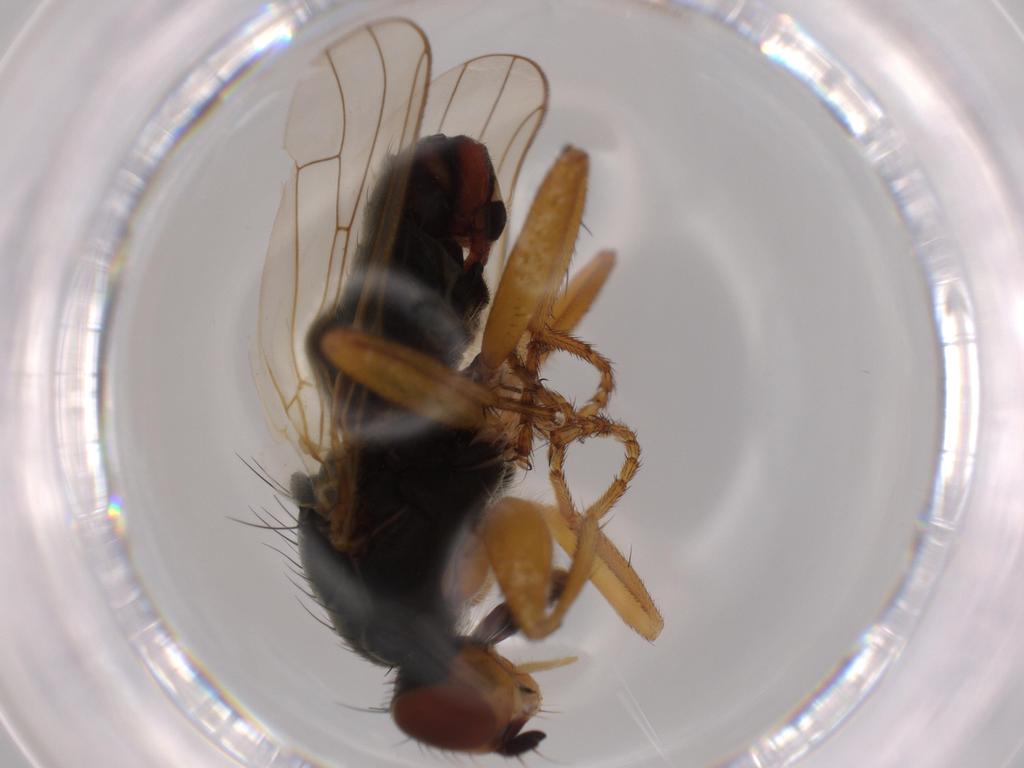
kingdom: Animalia
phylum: Arthropoda
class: Insecta
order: Diptera
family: Scathophagidae
